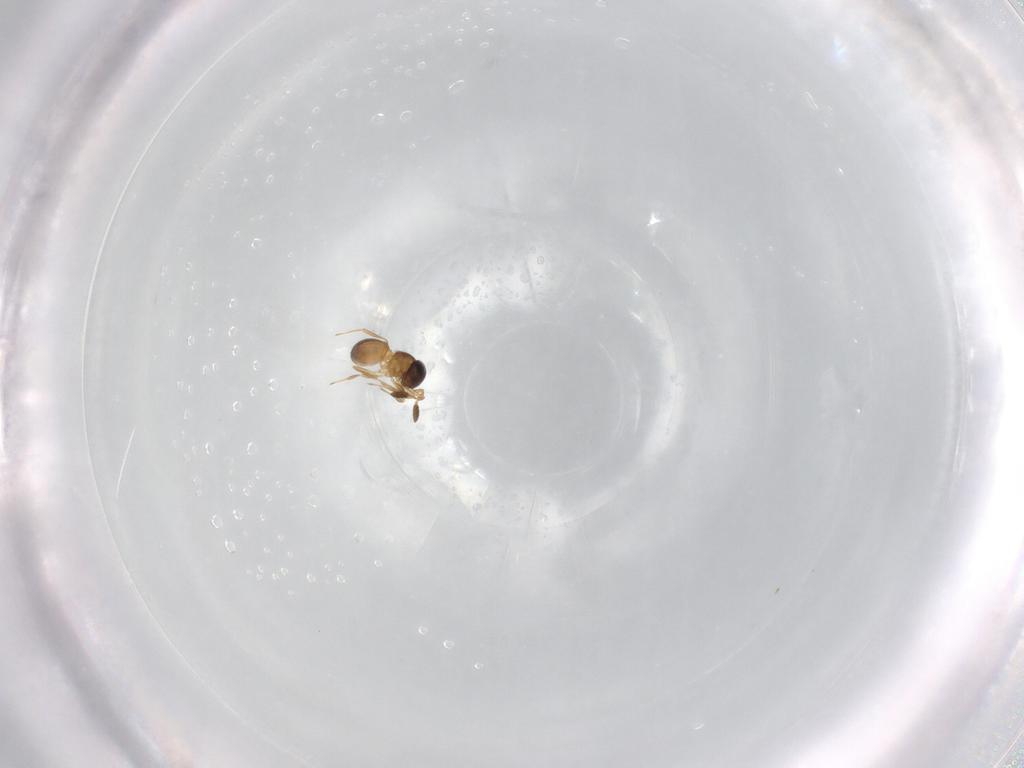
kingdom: Animalia
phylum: Arthropoda
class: Insecta
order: Hymenoptera
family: Scelionidae
